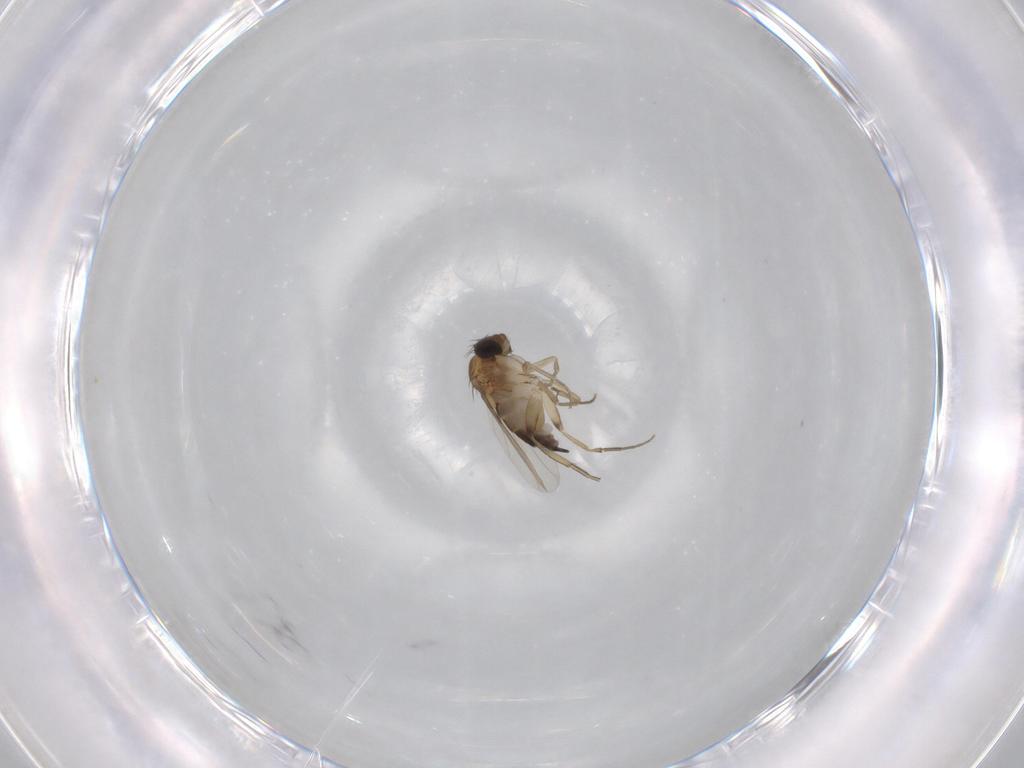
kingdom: Animalia
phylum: Arthropoda
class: Insecta
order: Diptera
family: Phoridae
